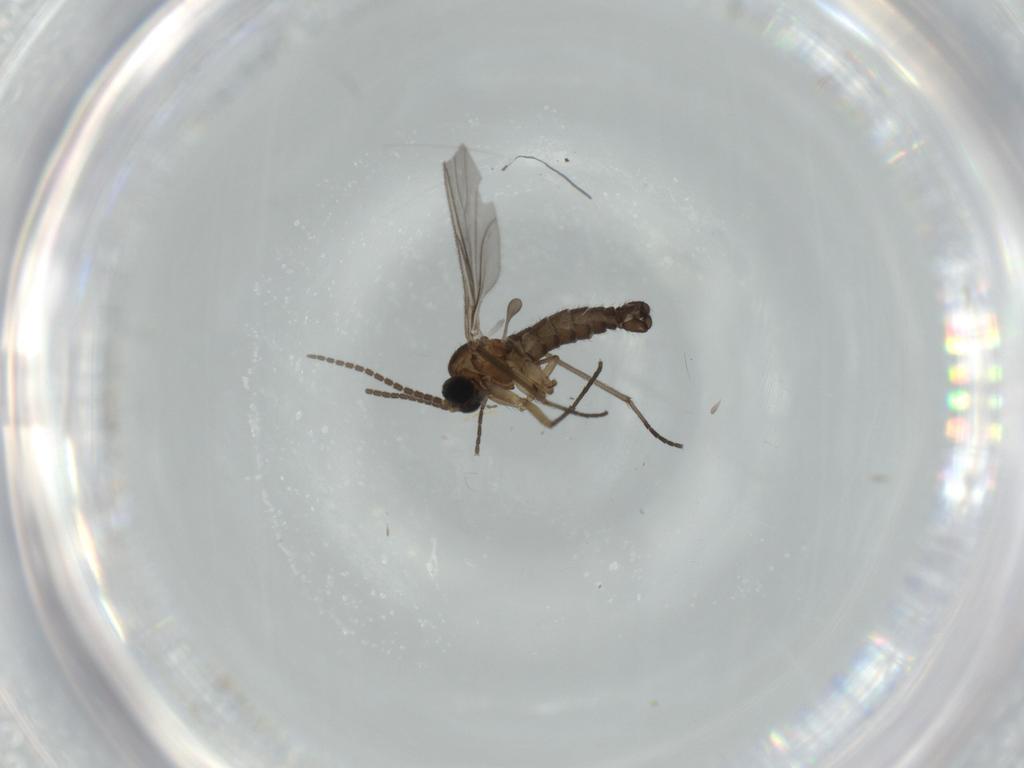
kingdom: Animalia
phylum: Arthropoda
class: Insecta
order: Diptera
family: Sciaridae
